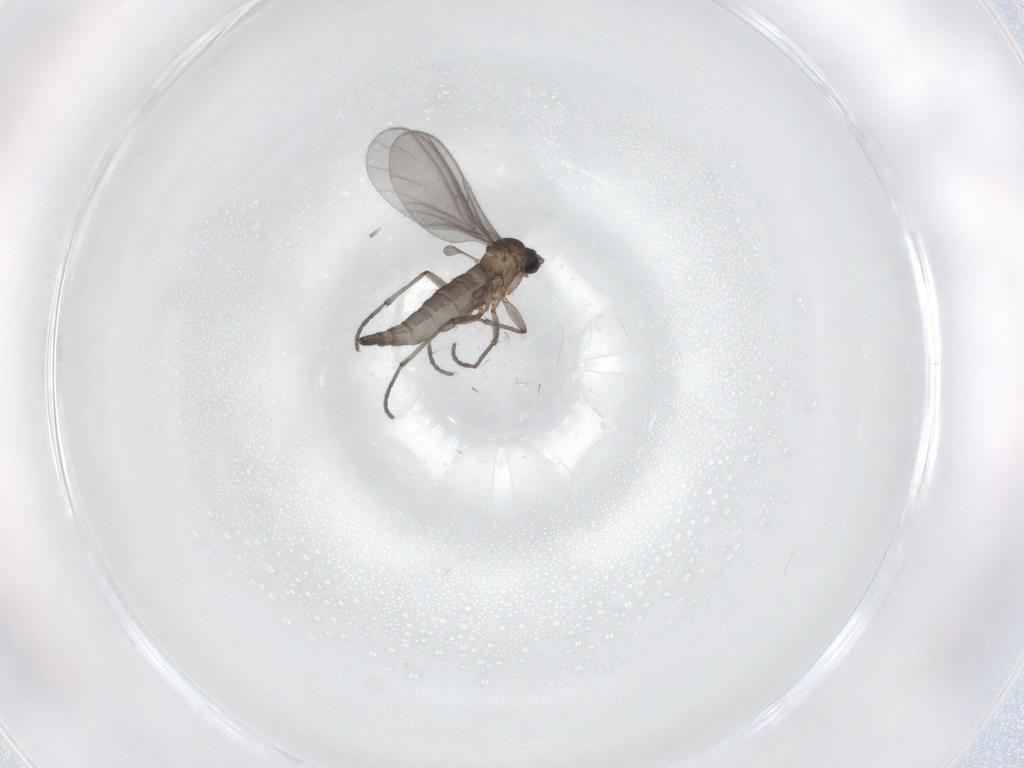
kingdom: Animalia
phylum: Arthropoda
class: Insecta
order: Diptera
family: Sciaridae
